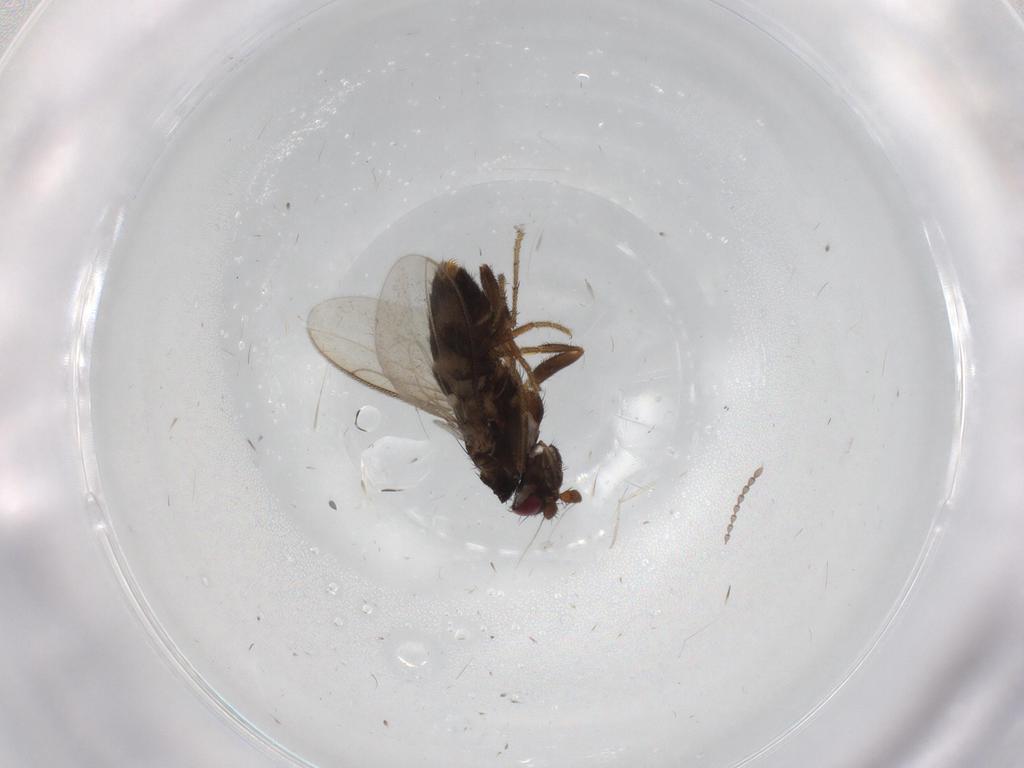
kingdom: Animalia
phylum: Arthropoda
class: Insecta
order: Diptera
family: Sphaeroceridae
